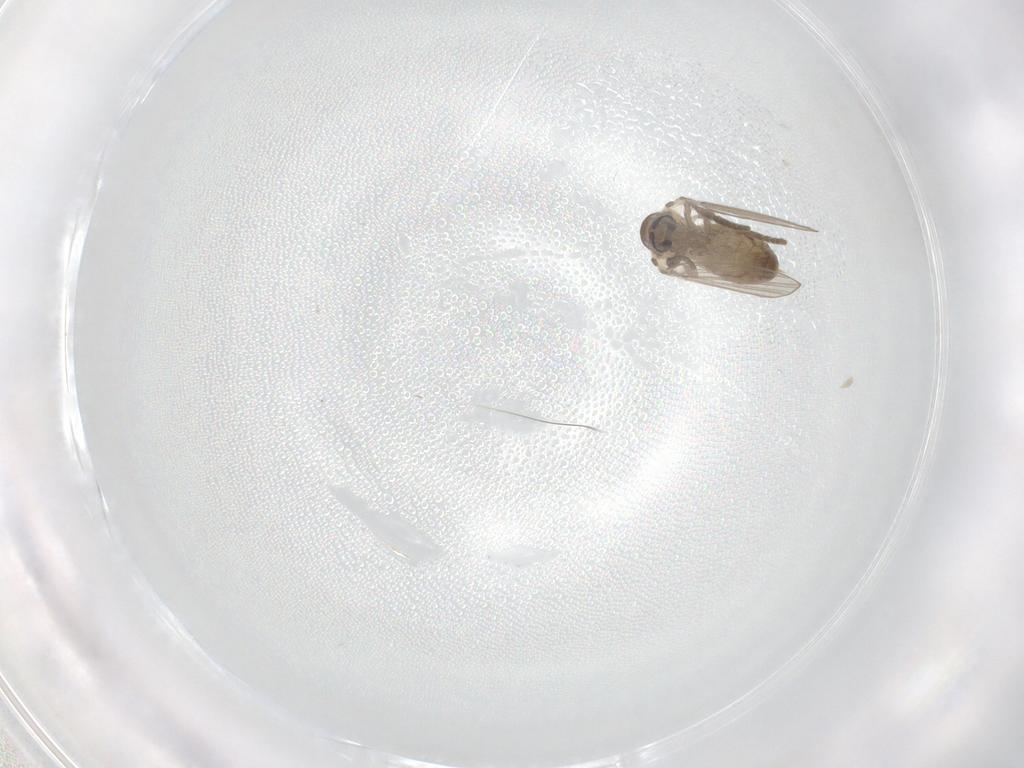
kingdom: Animalia
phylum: Arthropoda
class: Insecta
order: Diptera
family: Psychodidae
